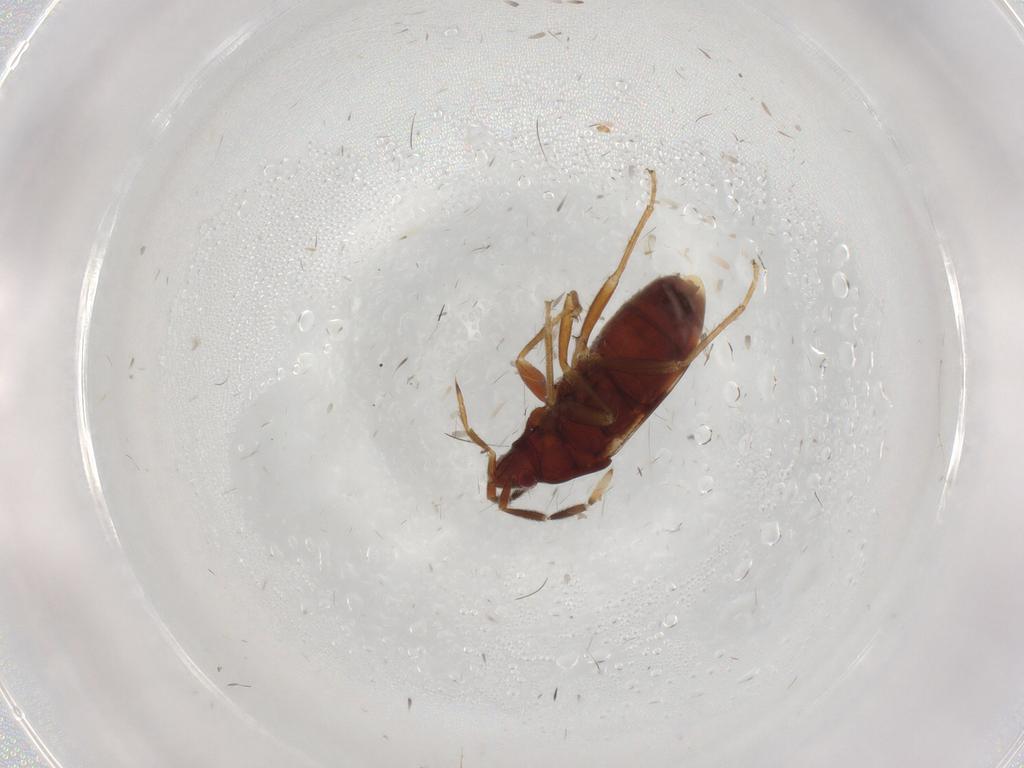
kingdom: Animalia
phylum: Arthropoda
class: Insecta
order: Hemiptera
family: Rhyparochromidae
